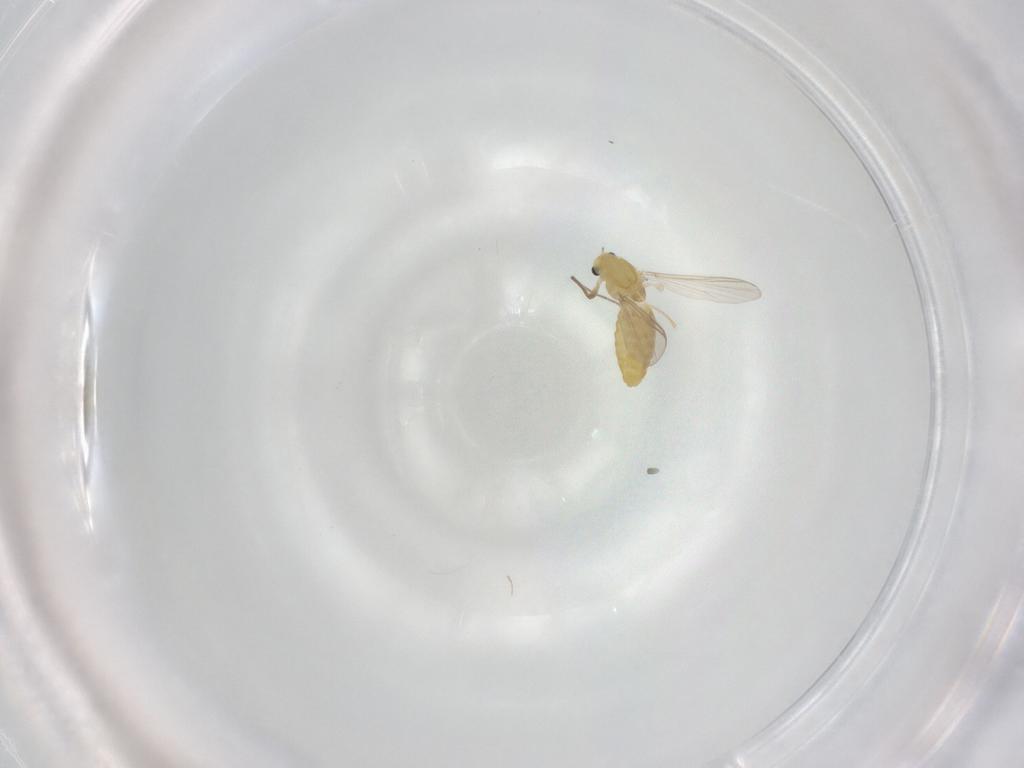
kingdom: Animalia
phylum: Arthropoda
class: Insecta
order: Diptera
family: Chironomidae
